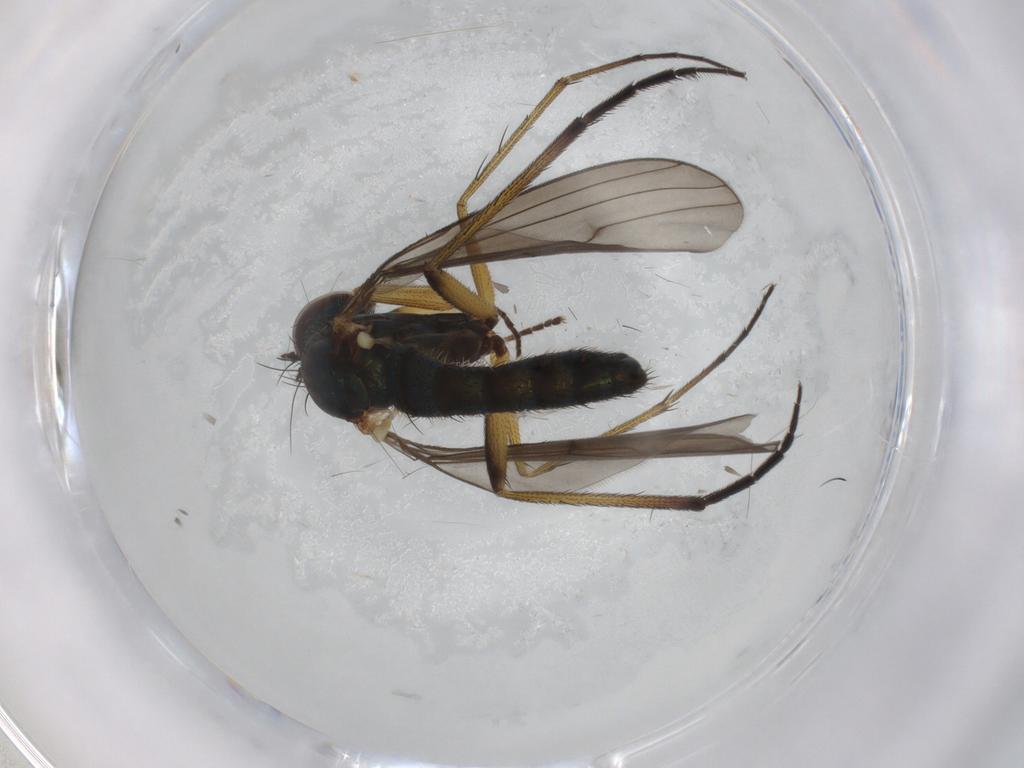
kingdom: Animalia
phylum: Arthropoda
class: Insecta
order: Diptera
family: Dolichopodidae
